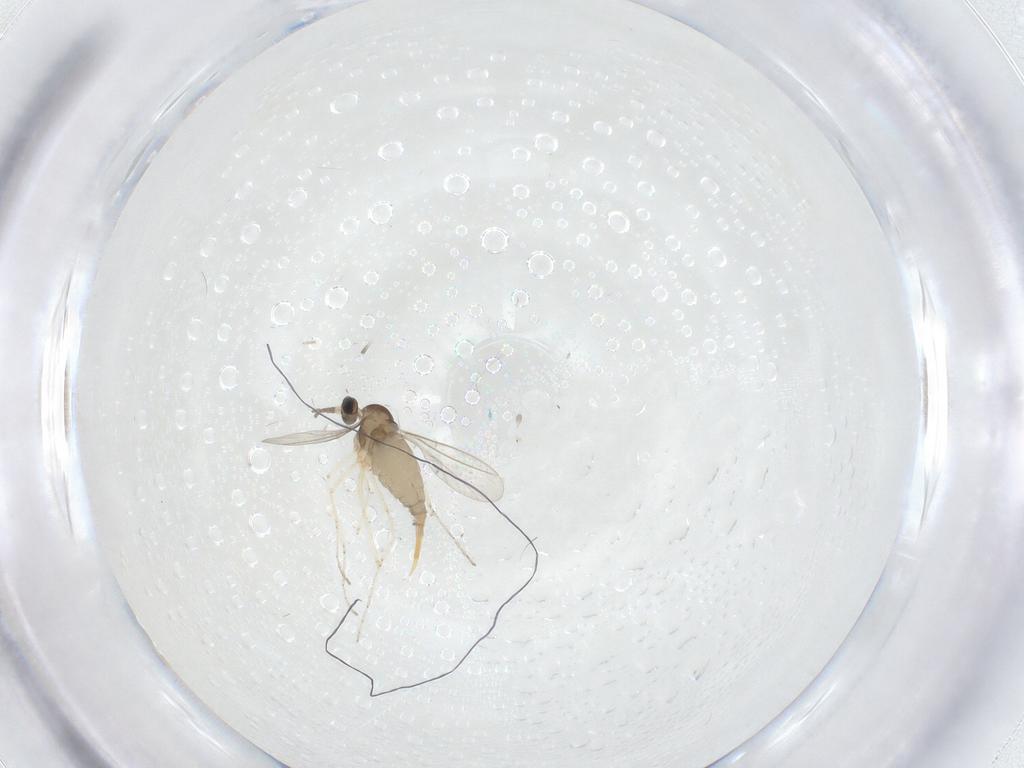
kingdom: Animalia
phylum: Arthropoda
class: Insecta
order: Diptera
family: Cecidomyiidae
